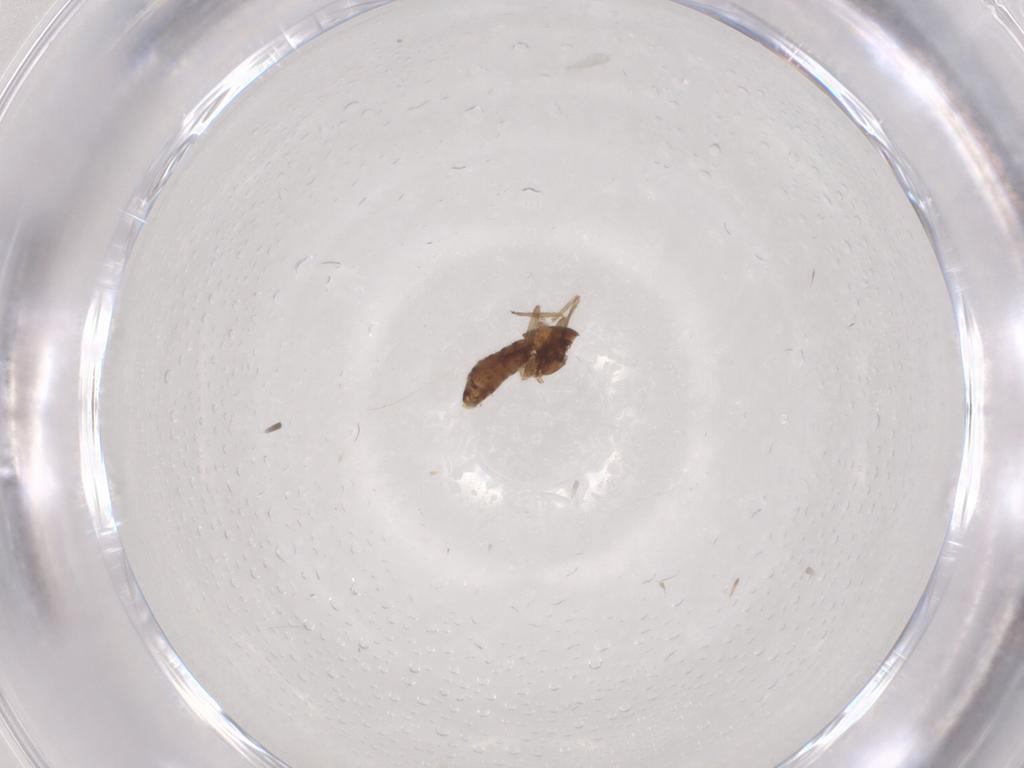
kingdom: Animalia
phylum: Arthropoda
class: Insecta
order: Diptera
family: Chironomidae
